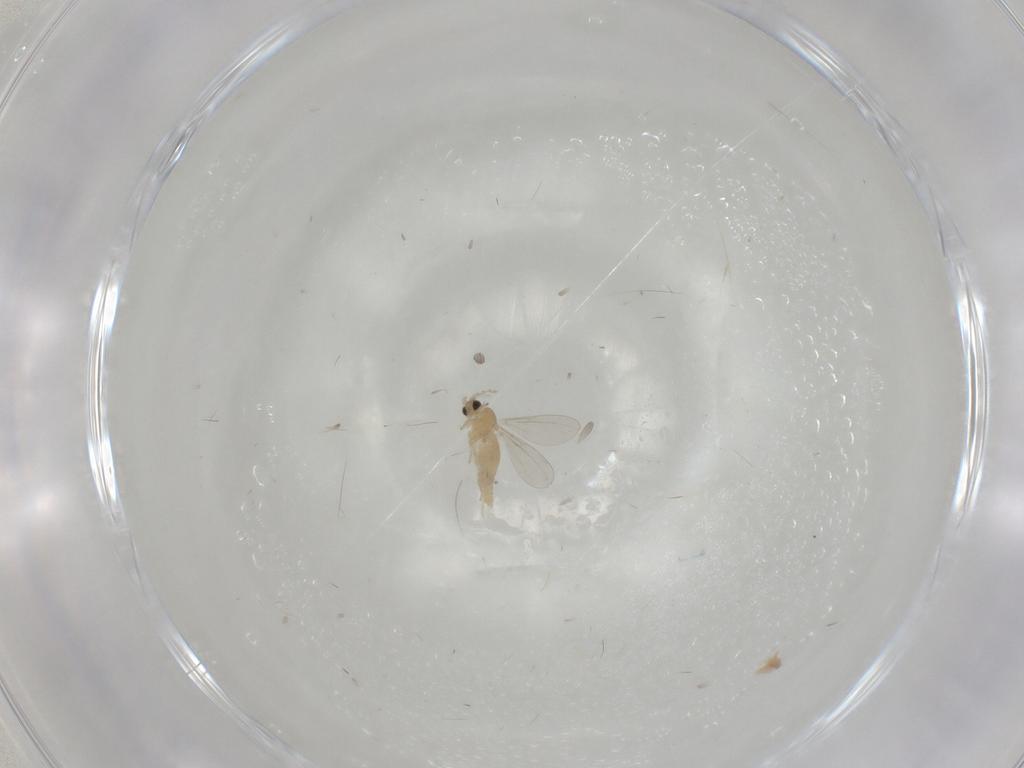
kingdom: Animalia
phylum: Arthropoda
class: Insecta
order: Diptera
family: Cecidomyiidae
